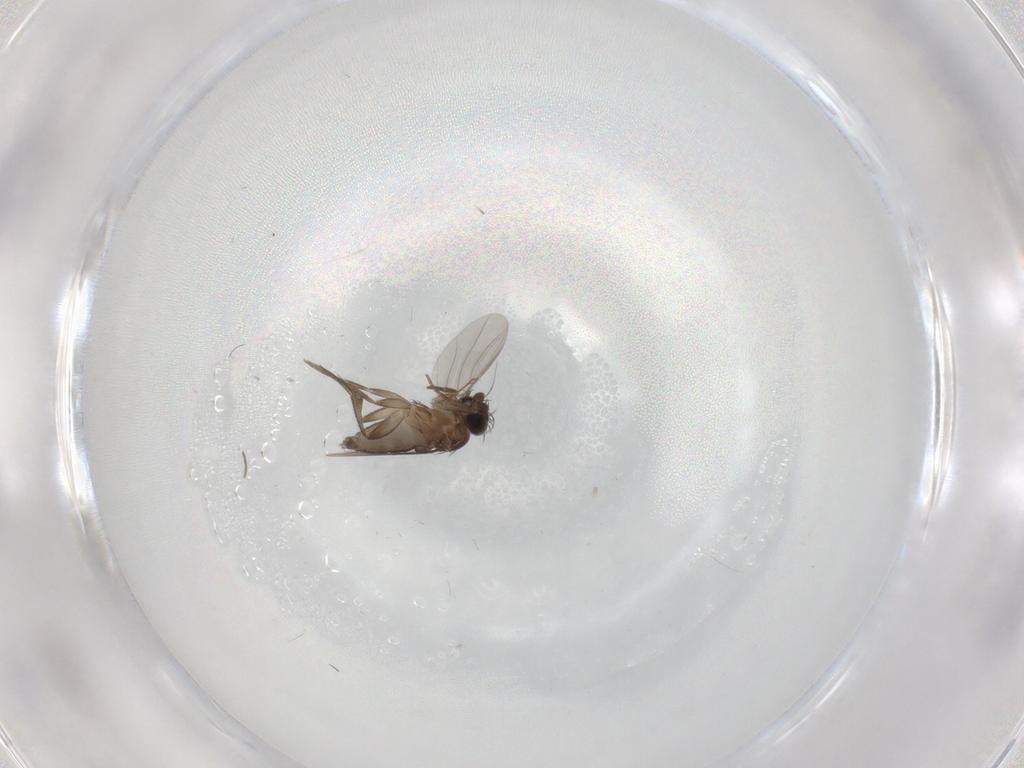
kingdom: Animalia
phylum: Arthropoda
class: Insecta
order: Diptera
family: Phoridae
